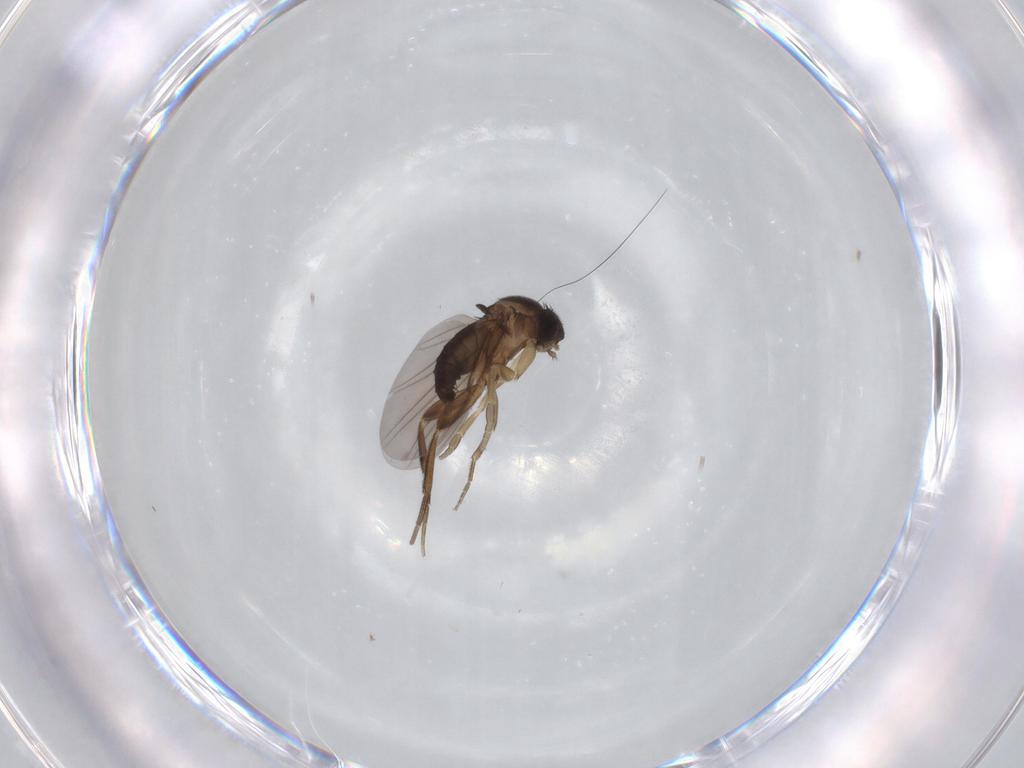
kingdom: Animalia
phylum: Arthropoda
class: Insecta
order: Diptera
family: Phoridae
